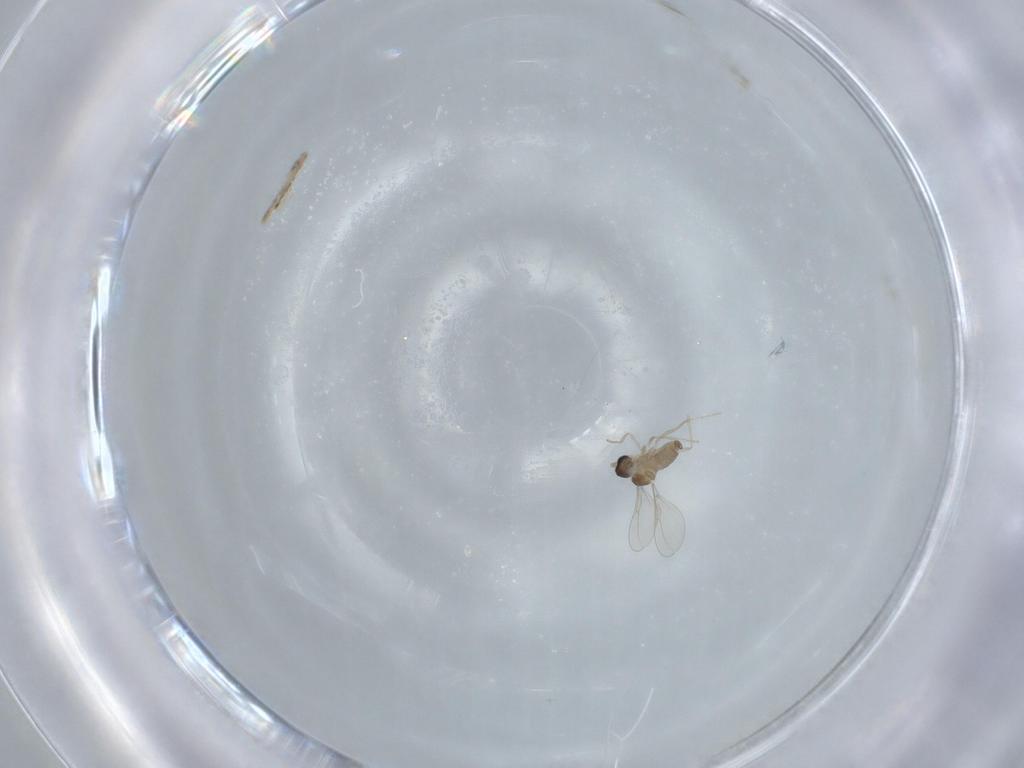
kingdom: Animalia
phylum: Arthropoda
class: Insecta
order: Diptera
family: Cecidomyiidae
